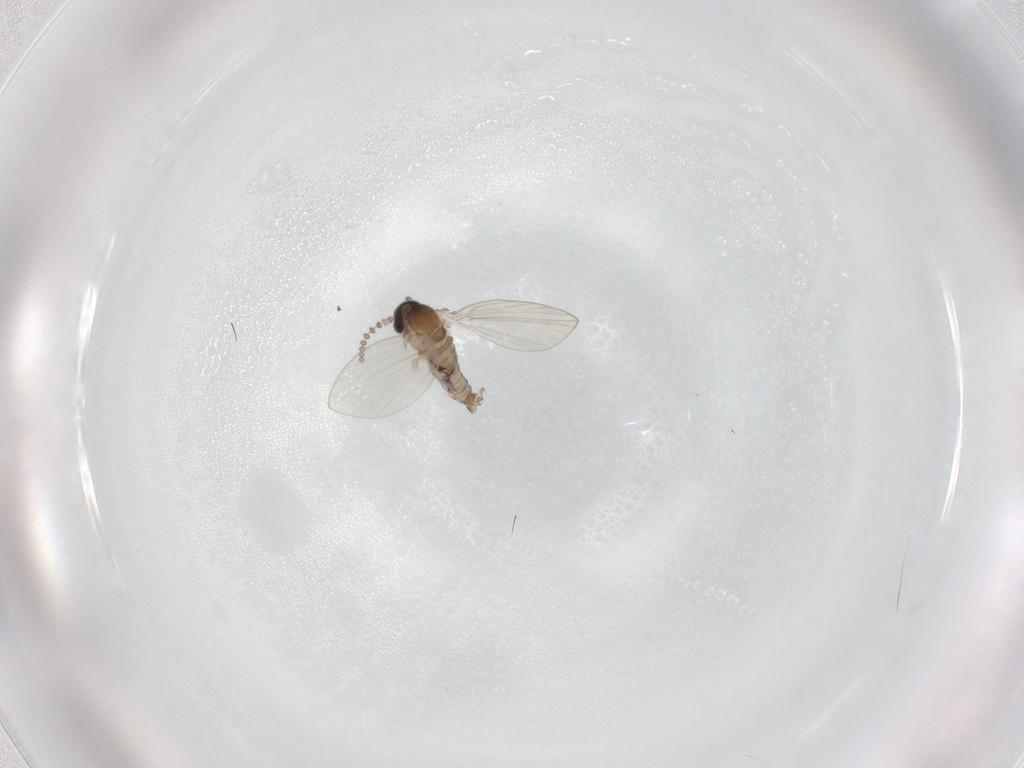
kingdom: Animalia
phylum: Arthropoda
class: Insecta
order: Diptera
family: Psychodidae
